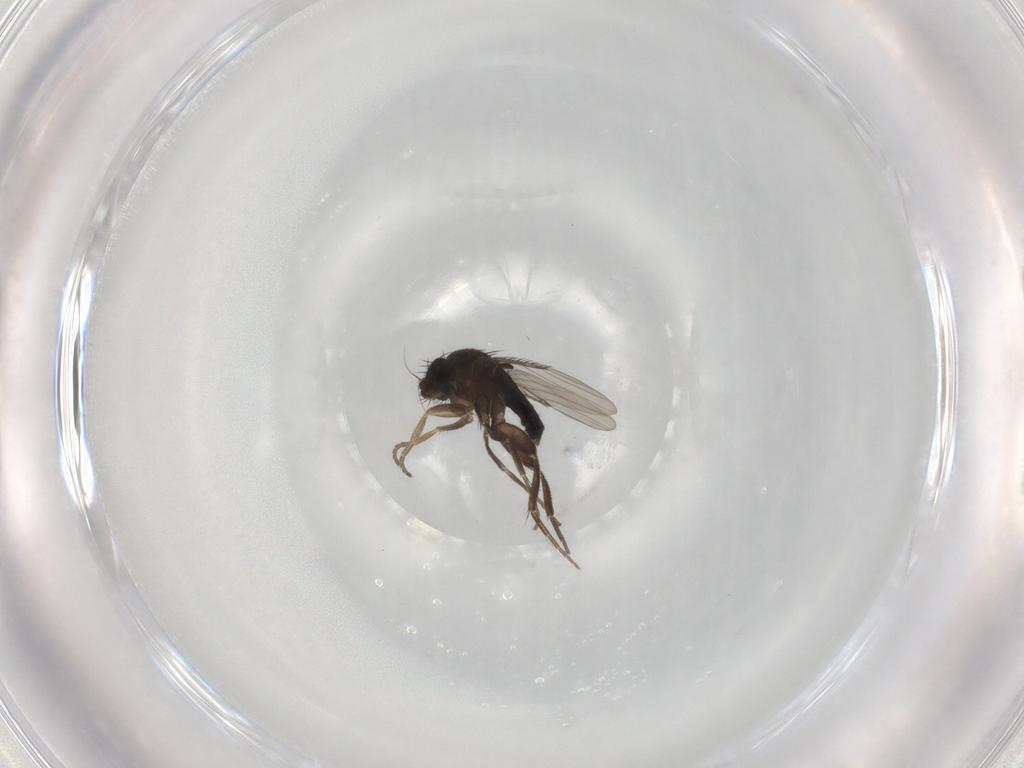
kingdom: Animalia
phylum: Arthropoda
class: Insecta
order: Diptera
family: Phoridae
